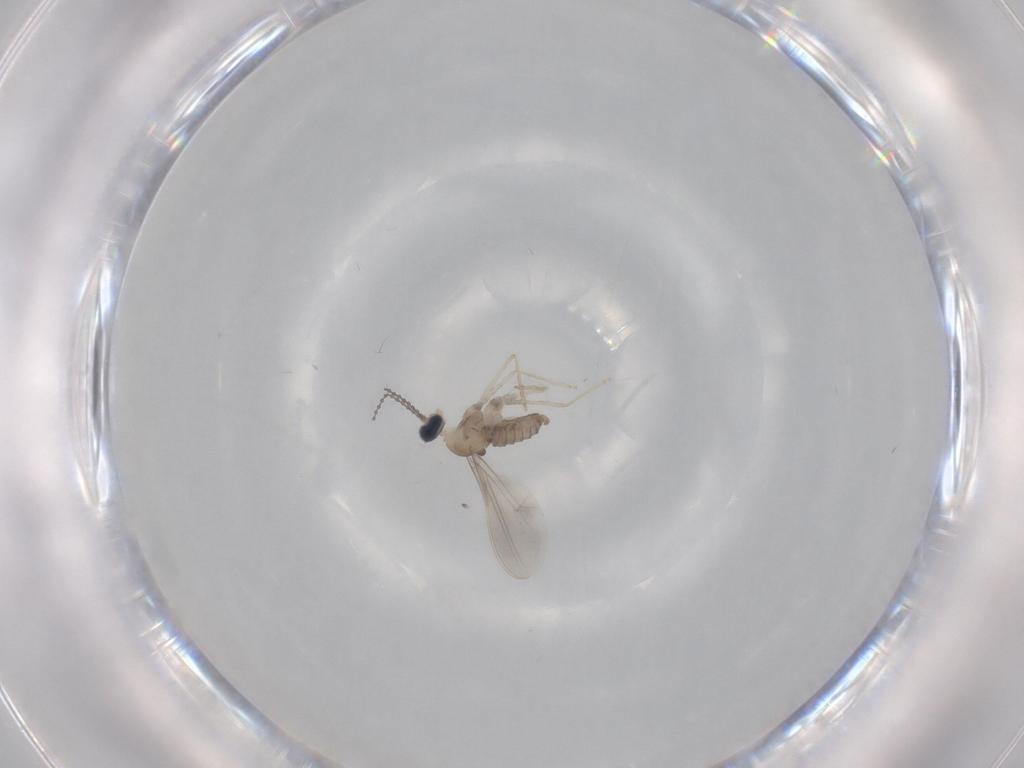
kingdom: Animalia
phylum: Arthropoda
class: Insecta
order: Diptera
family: Cecidomyiidae
